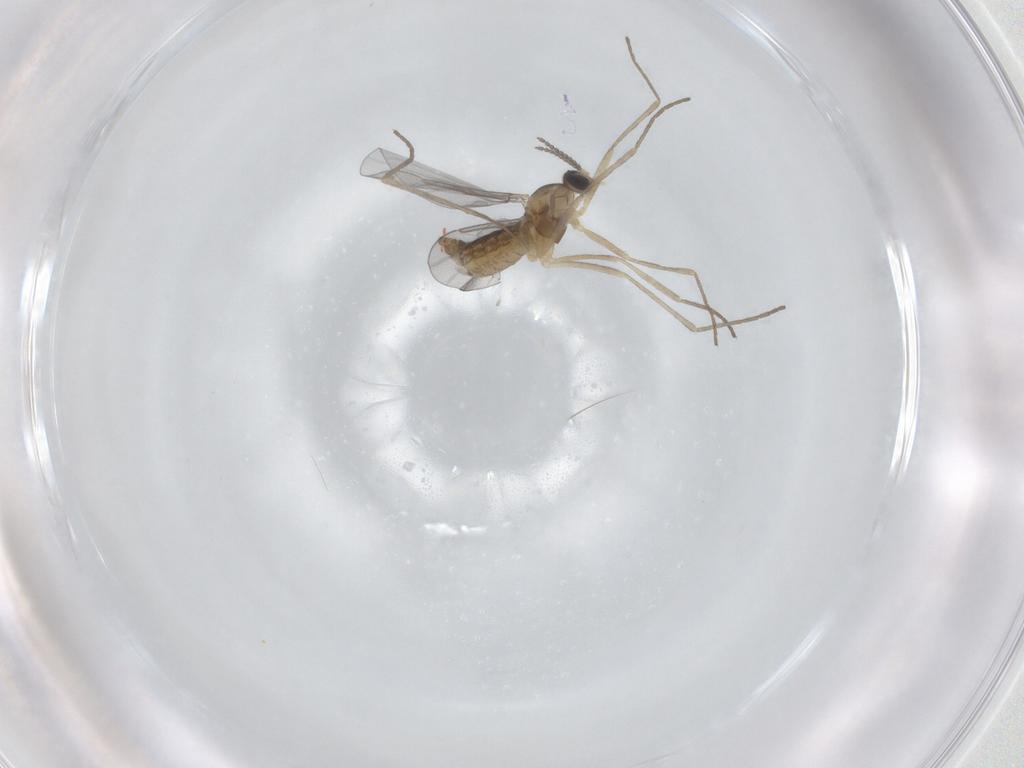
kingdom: Animalia
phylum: Arthropoda
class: Insecta
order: Diptera
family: Cecidomyiidae
